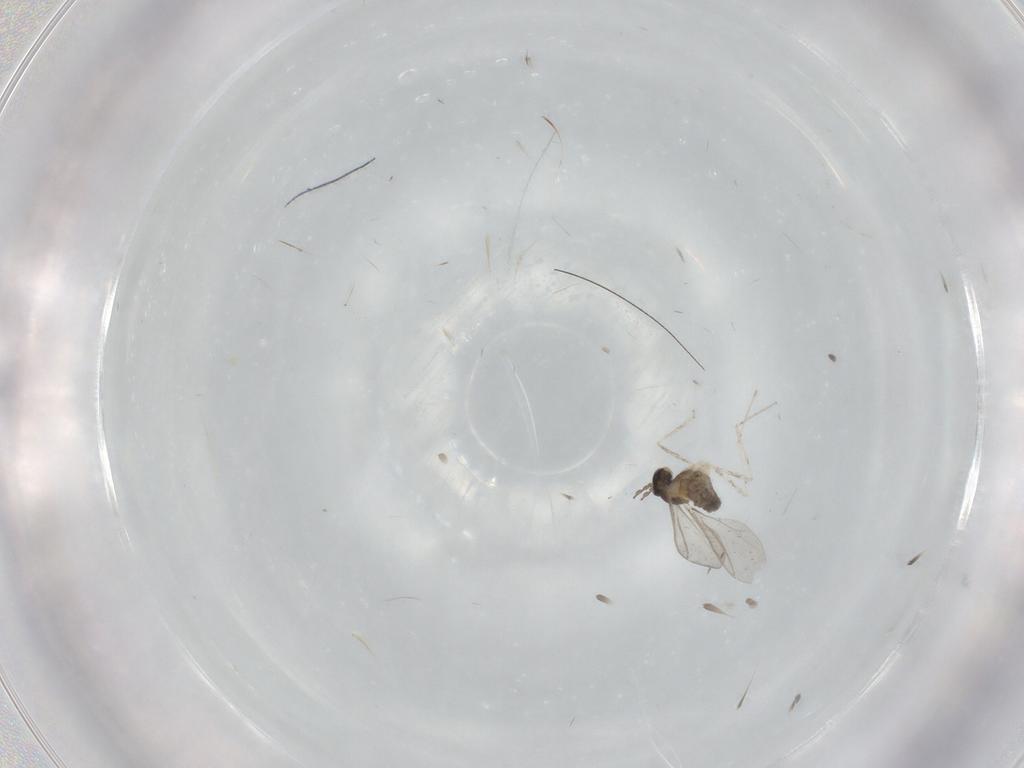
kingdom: Animalia
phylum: Arthropoda
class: Insecta
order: Diptera
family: Cecidomyiidae
